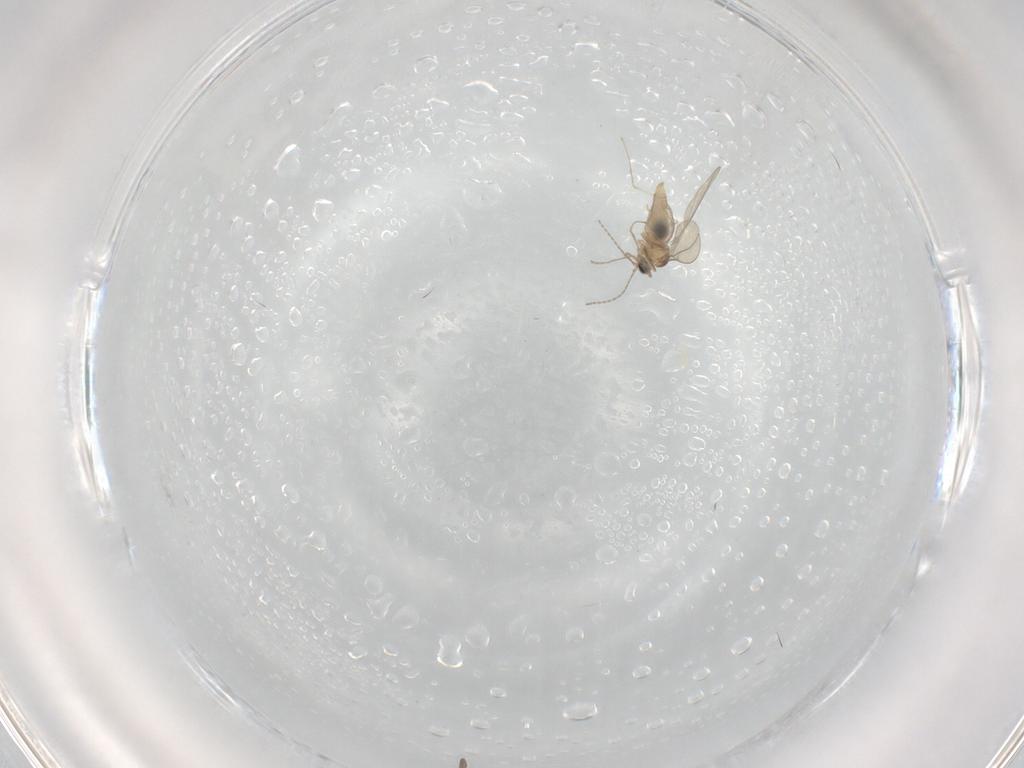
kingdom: Animalia
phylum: Arthropoda
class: Insecta
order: Diptera
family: Cecidomyiidae
